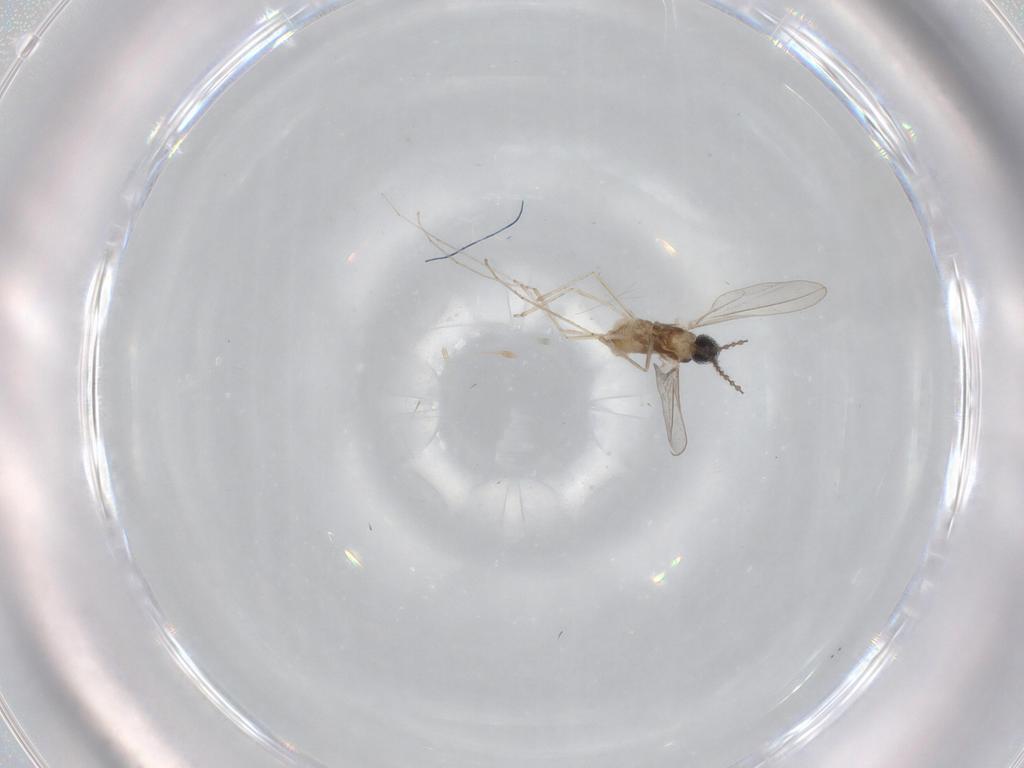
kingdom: Animalia
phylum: Arthropoda
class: Insecta
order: Diptera
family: Cecidomyiidae
